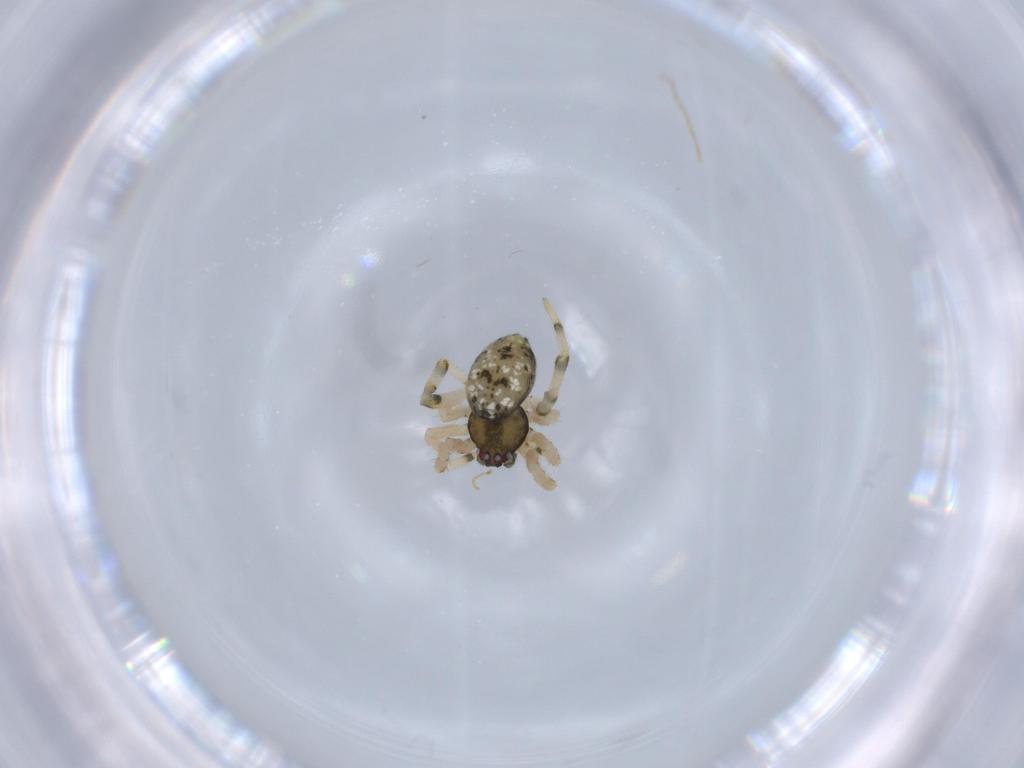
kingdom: Animalia
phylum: Arthropoda
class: Arachnida
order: Araneae
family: Theridiidae
